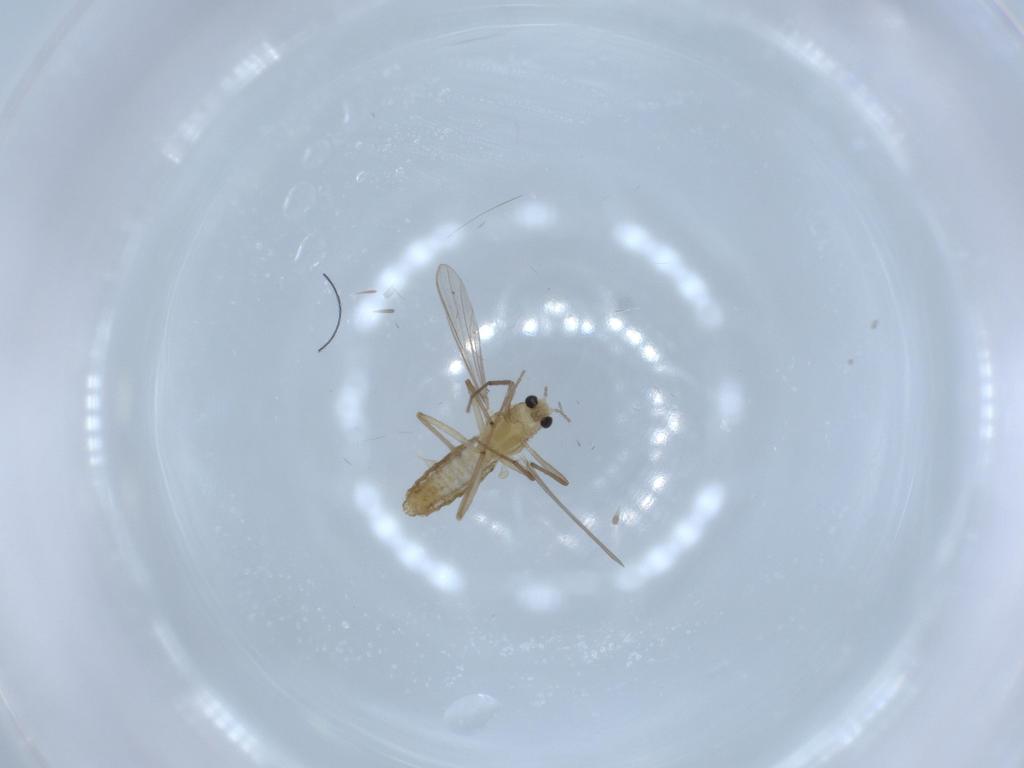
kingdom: Animalia
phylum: Arthropoda
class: Insecta
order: Diptera
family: Chironomidae
